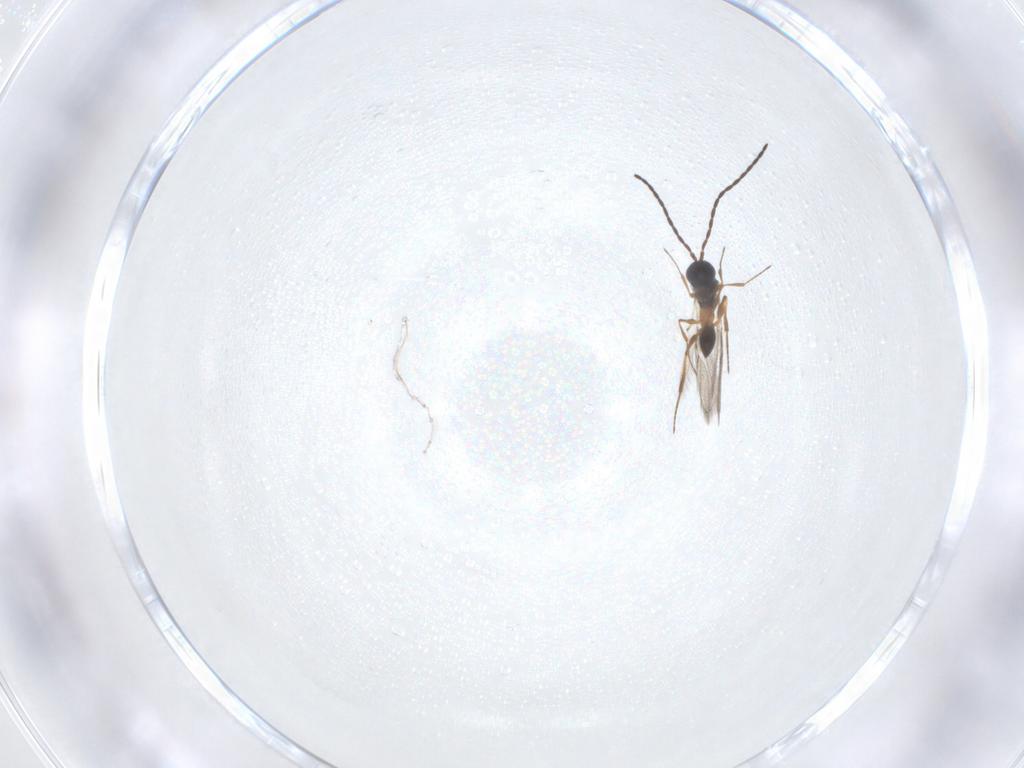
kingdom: Animalia
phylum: Arthropoda
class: Insecta
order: Hymenoptera
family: Figitidae
